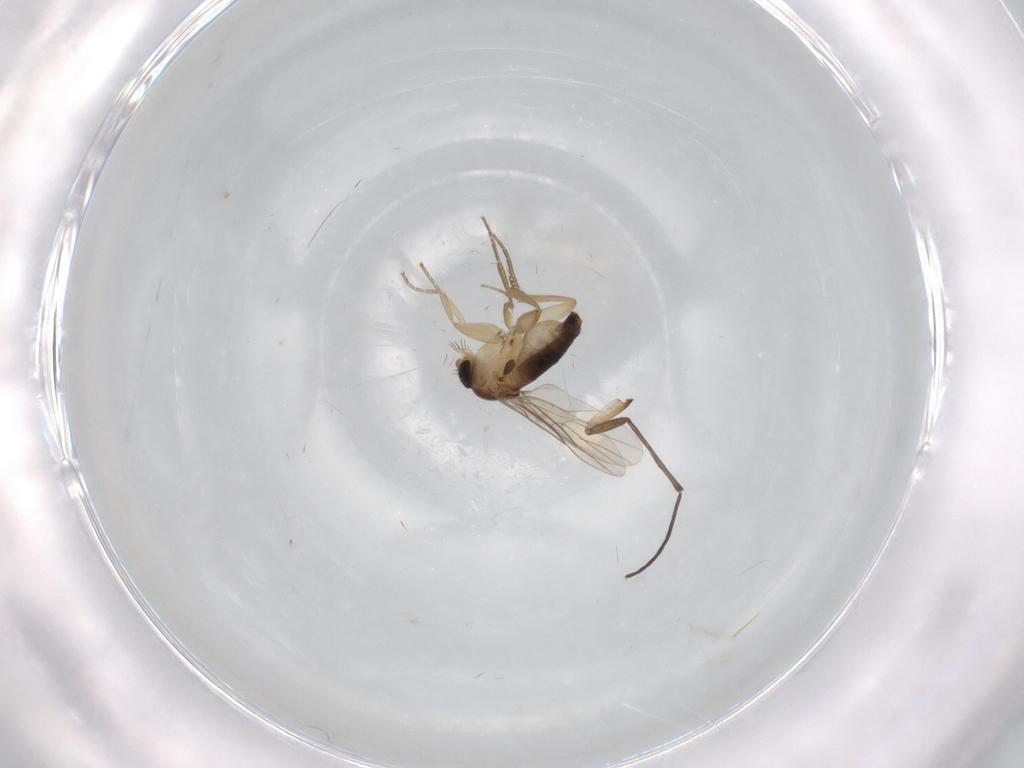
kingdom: Animalia
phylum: Arthropoda
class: Insecta
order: Diptera
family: Phoridae
